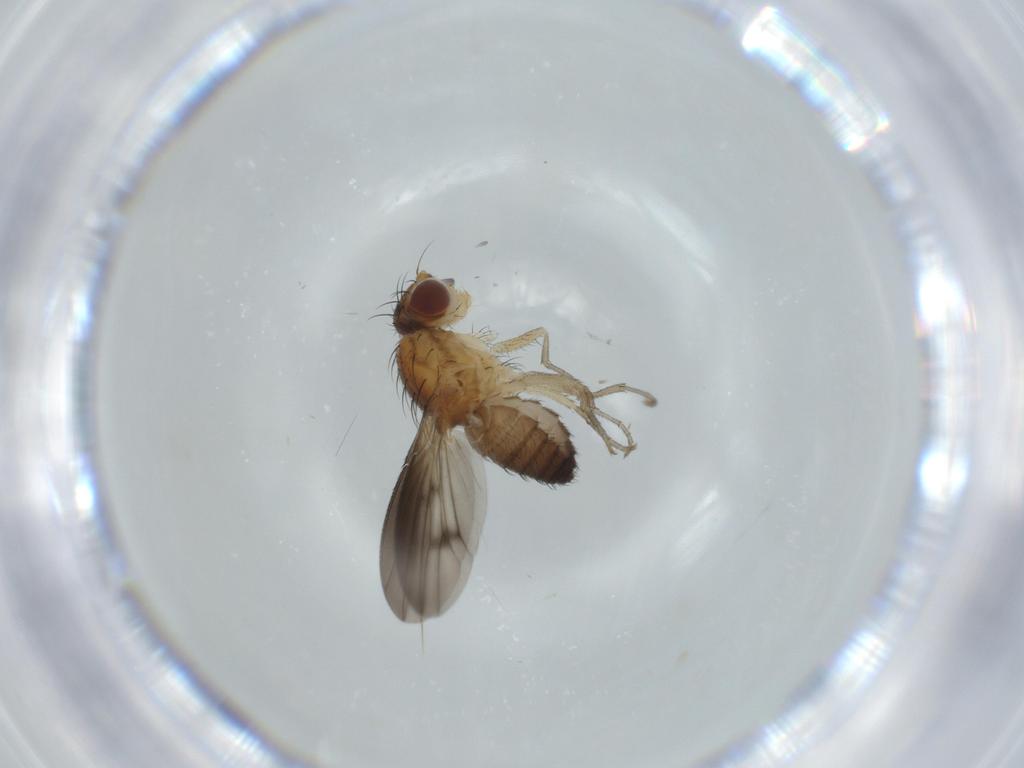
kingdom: Animalia
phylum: Arthropoda
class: Insecta
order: Diptera
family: Heleomyzidae
